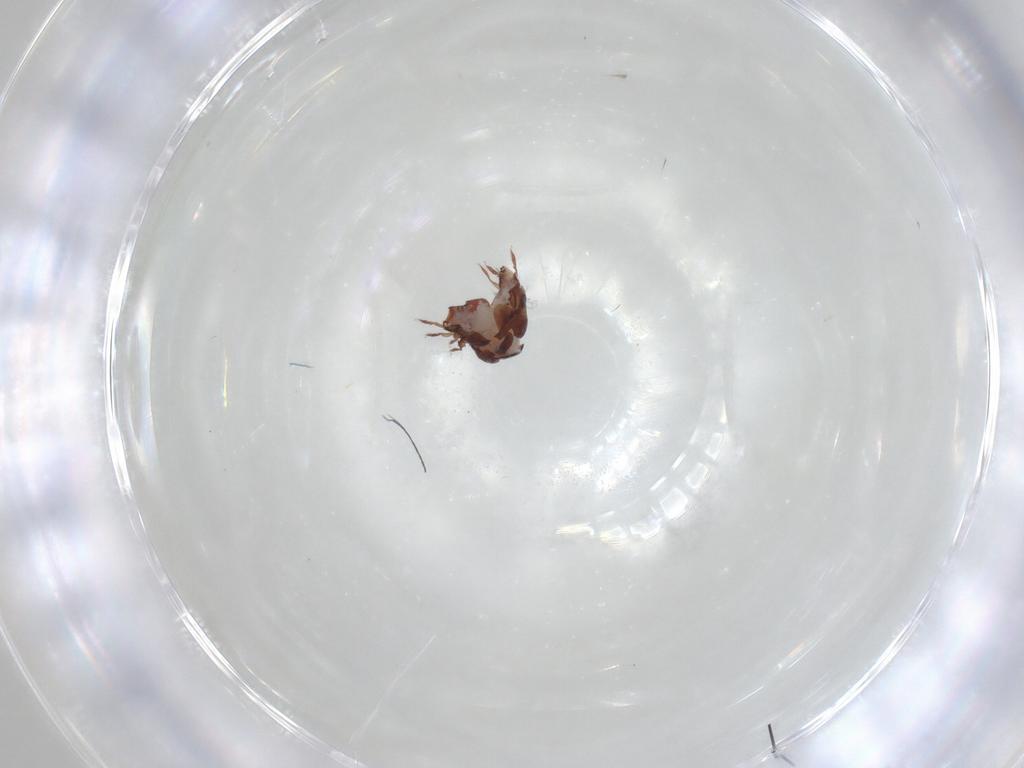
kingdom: Animalia
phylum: Arthropoda
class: Arachnida
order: Sarcoptiformes
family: Humerobatidae
